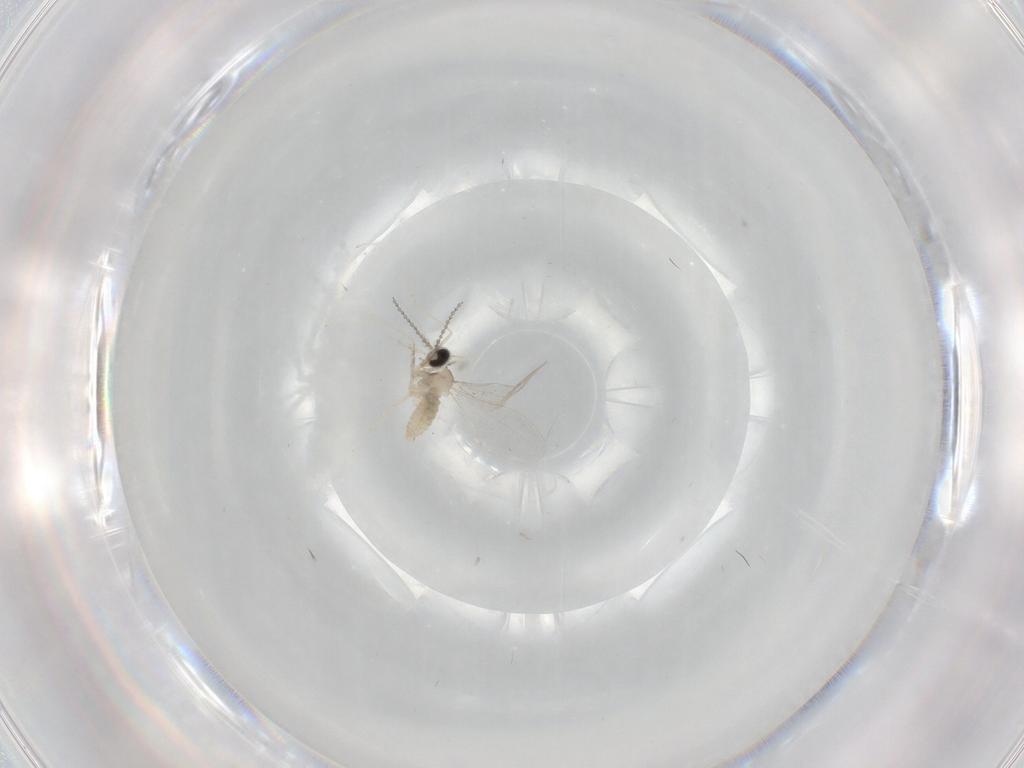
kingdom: Animalia
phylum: Arthropoda
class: Insecta
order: Diptera
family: Cecidomyiidae
